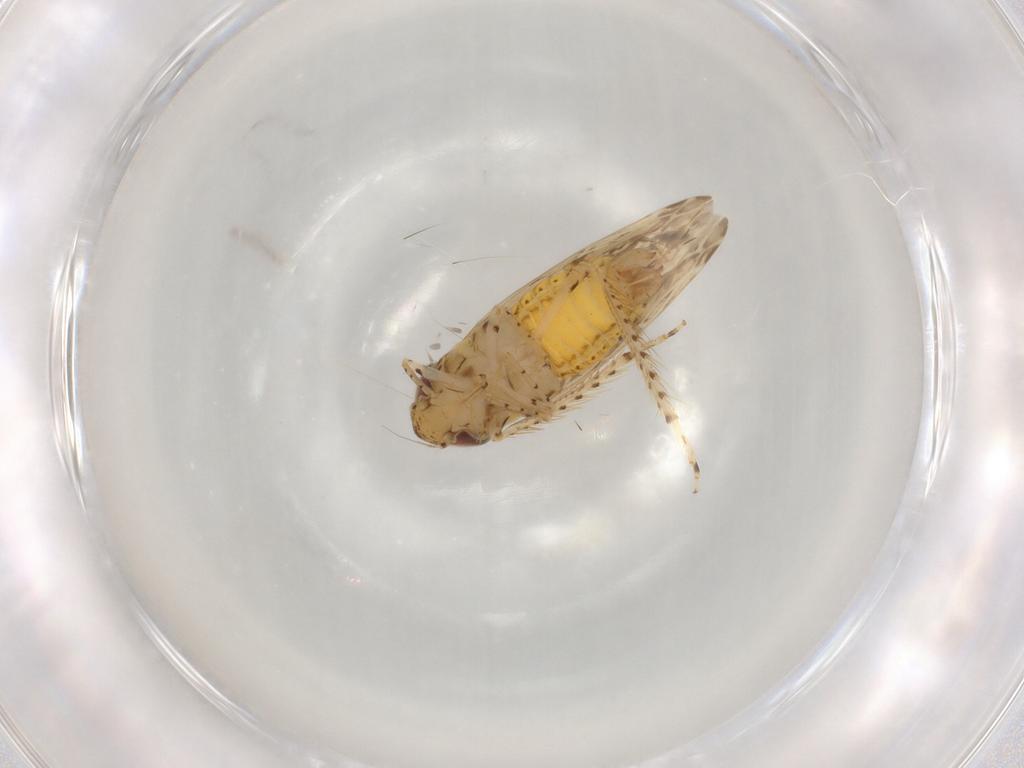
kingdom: Animalia
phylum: Arthropoda
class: Insecta
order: Hemiptera
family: Cicadellidae
